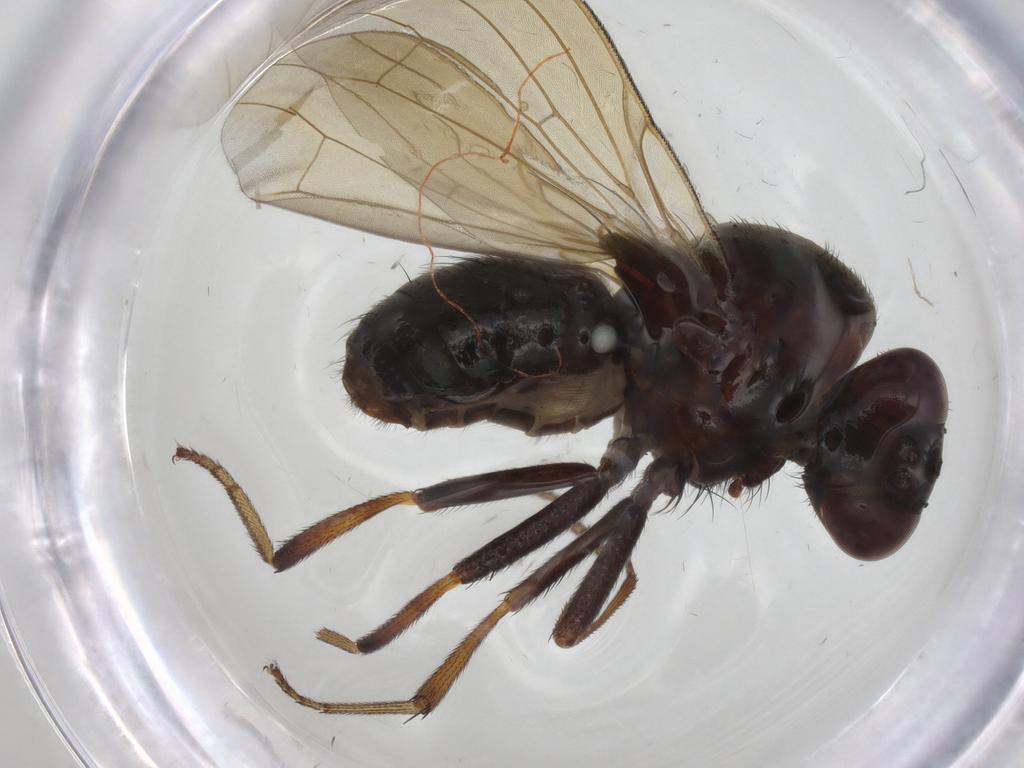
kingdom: Animalia
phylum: Arthropoda
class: Insecta
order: Diptera
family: Lauxaniidae
